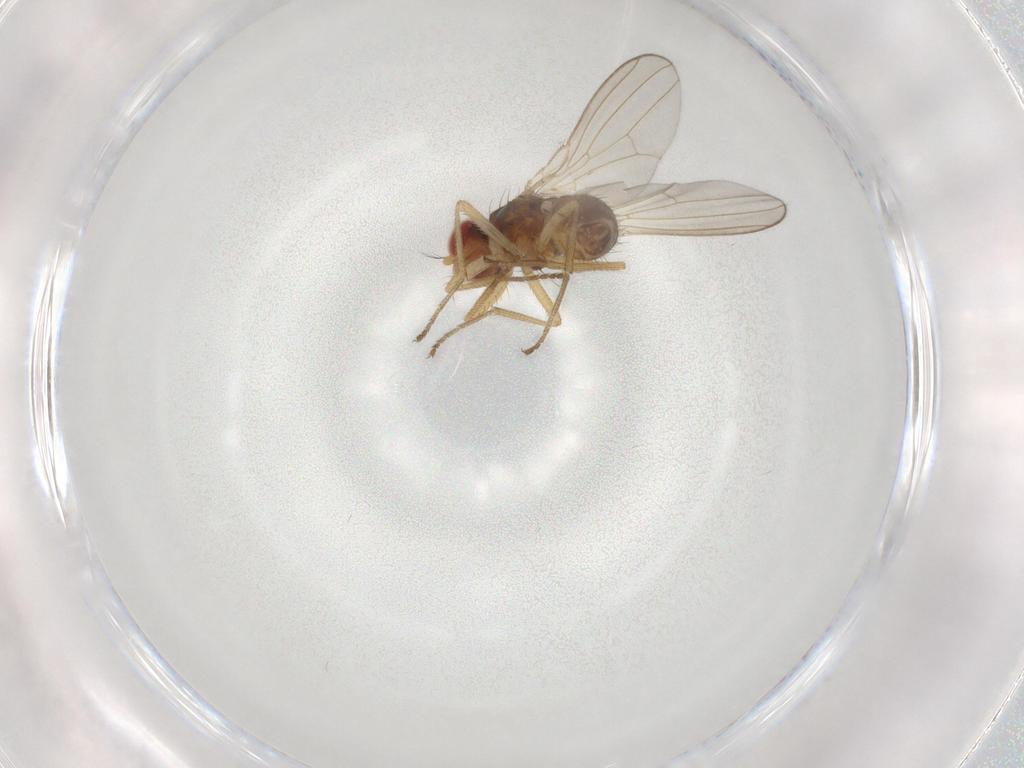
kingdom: Animalia
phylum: Arthropoda
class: Insecta
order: Diptera
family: Drosophilidae
